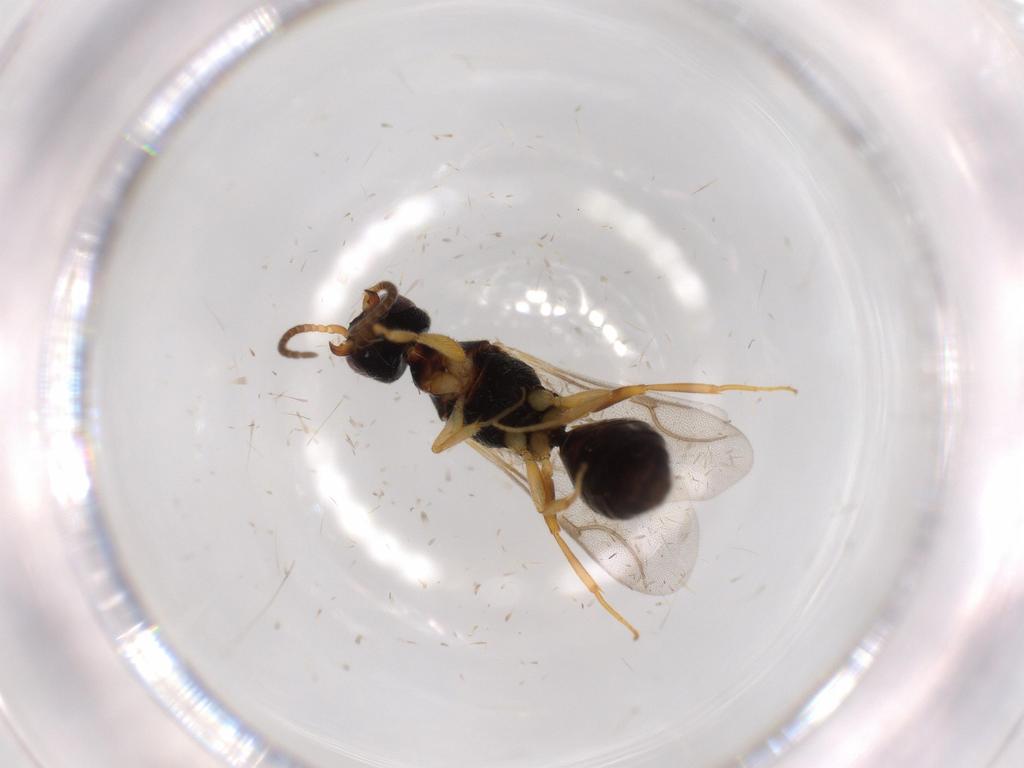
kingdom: Animalia
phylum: Arthropoda
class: Insecta
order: Hymenoptera
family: Bethylidae
